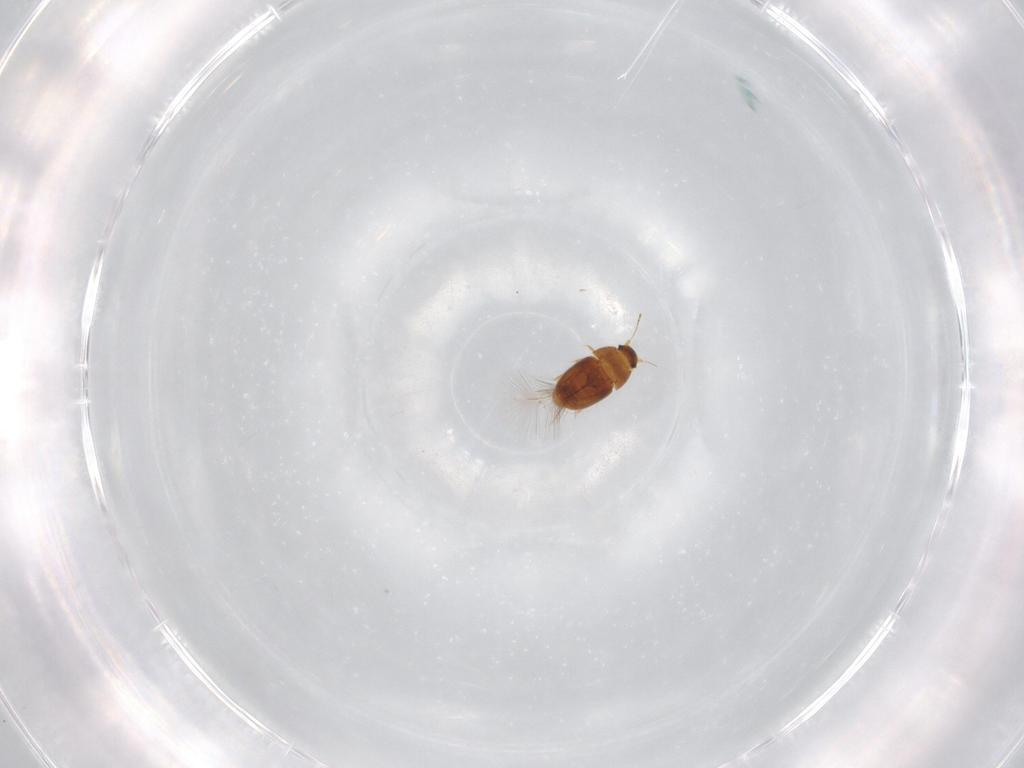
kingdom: Animalia
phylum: Arthropoda
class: Insecta
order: Coleoptera
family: Ptiliidae
